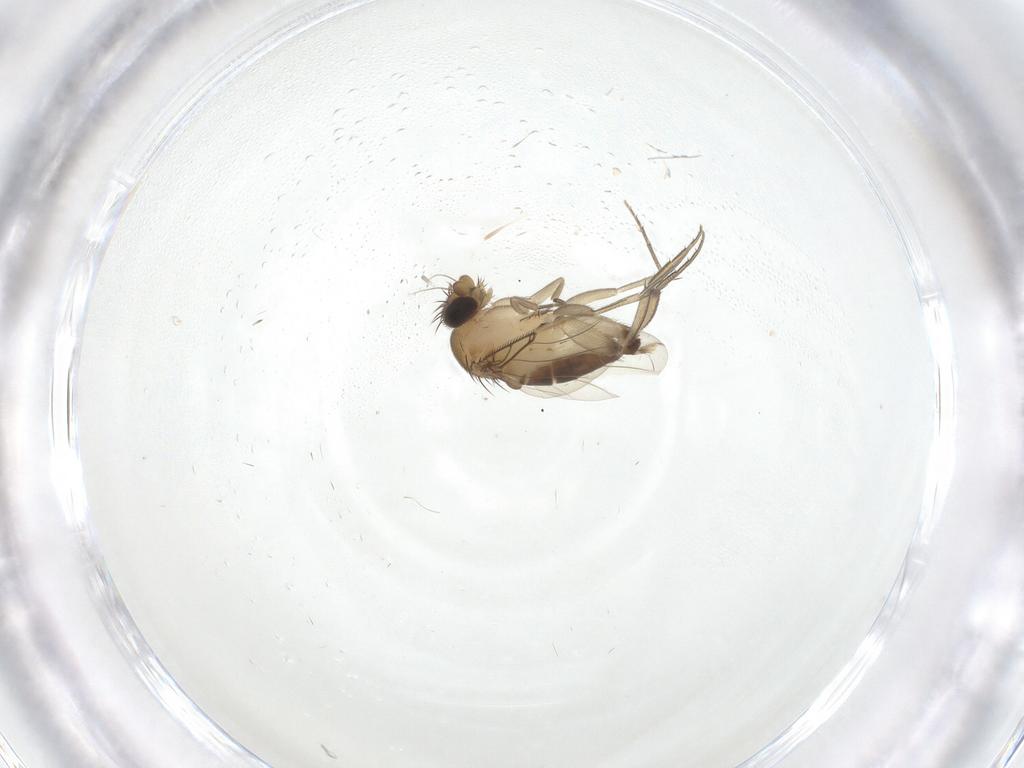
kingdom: Animalia
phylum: Arthropoda
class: Insecta
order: Diptera
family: Phoridae
